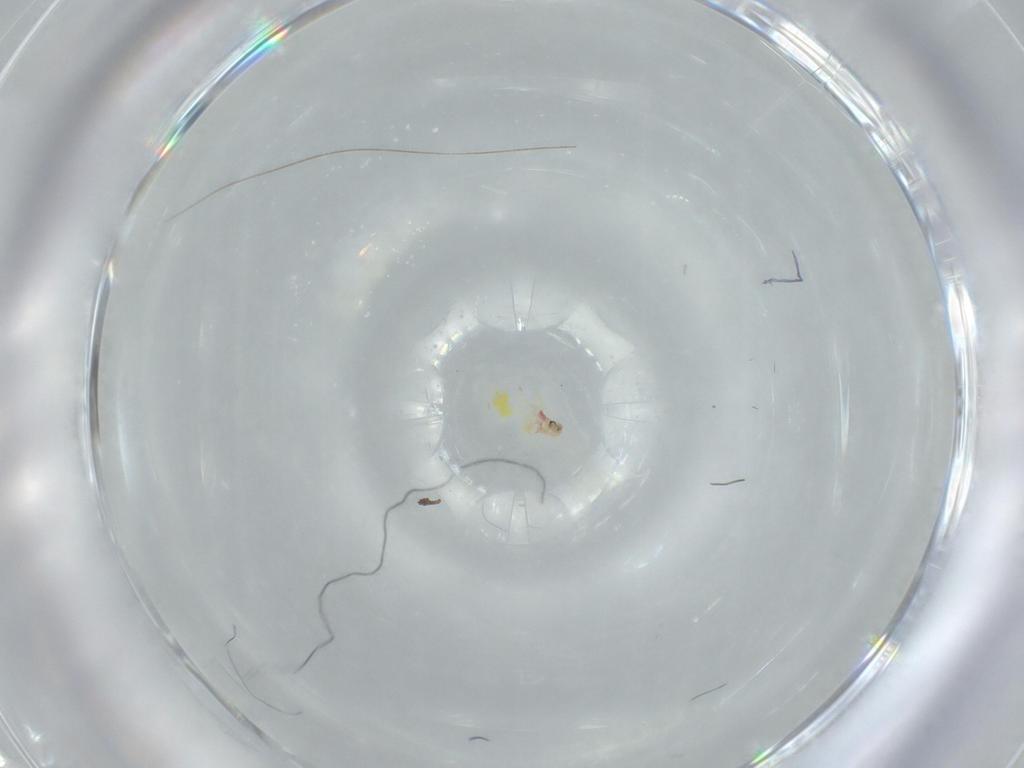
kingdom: Animalia
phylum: Arthropoda
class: Insecta
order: Hemiptera
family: Aleyrodidae
